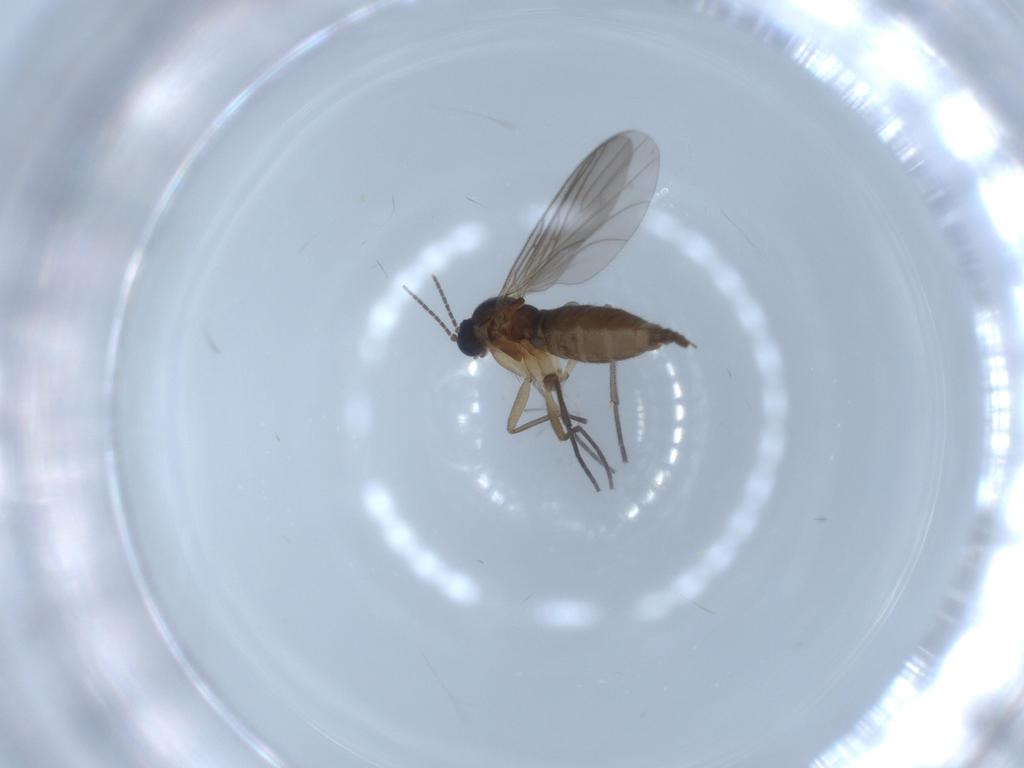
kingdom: Animalia
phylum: Arthropoda
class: Insecta
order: Diptera
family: Sciaridae
